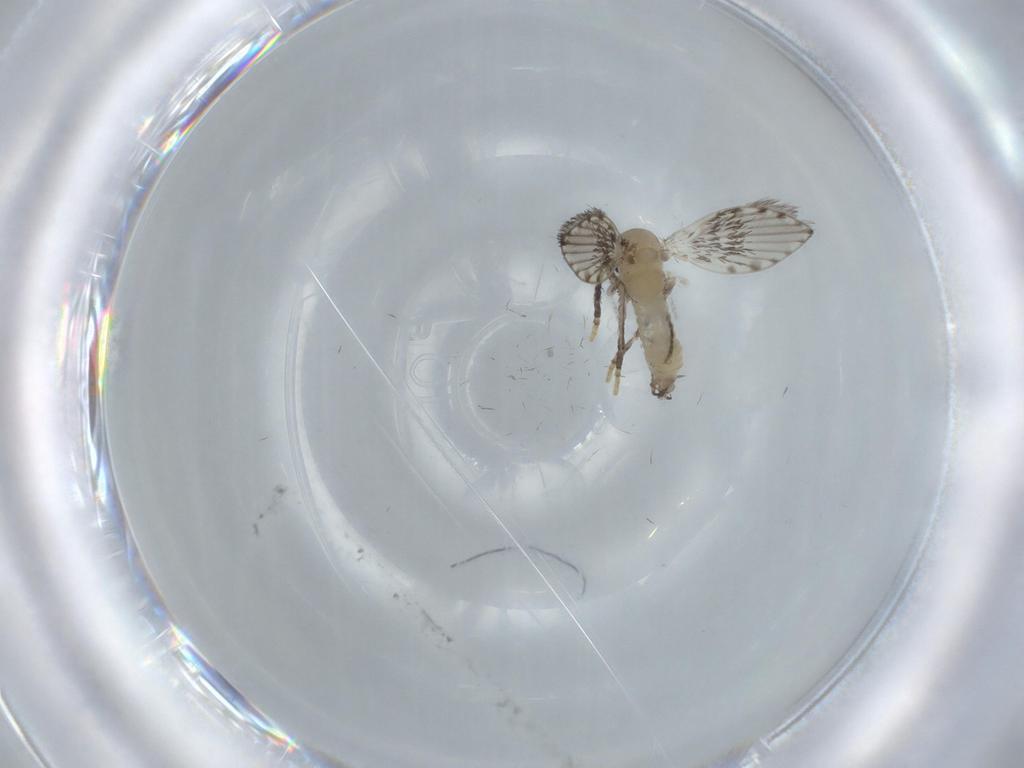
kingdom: Animalia
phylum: Arthropoda
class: Insecta
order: Diptera
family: Psychodidae
